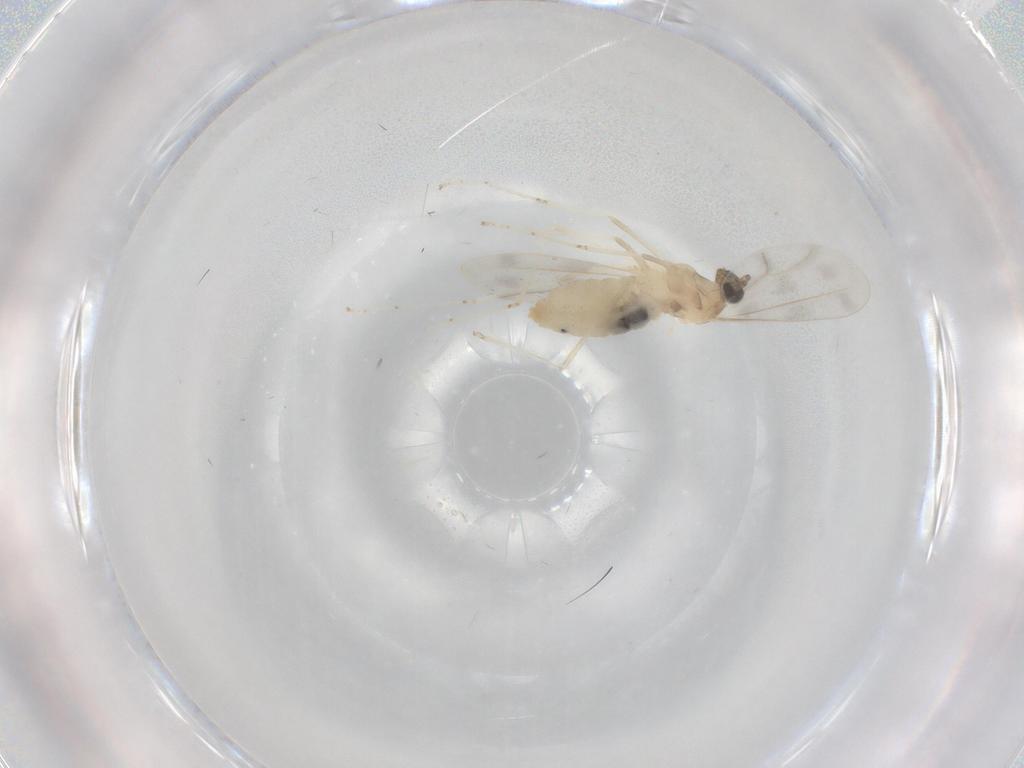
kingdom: Animalia
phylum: Arthropoda
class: Insecta
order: Diptera
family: Cecidomyiidae
